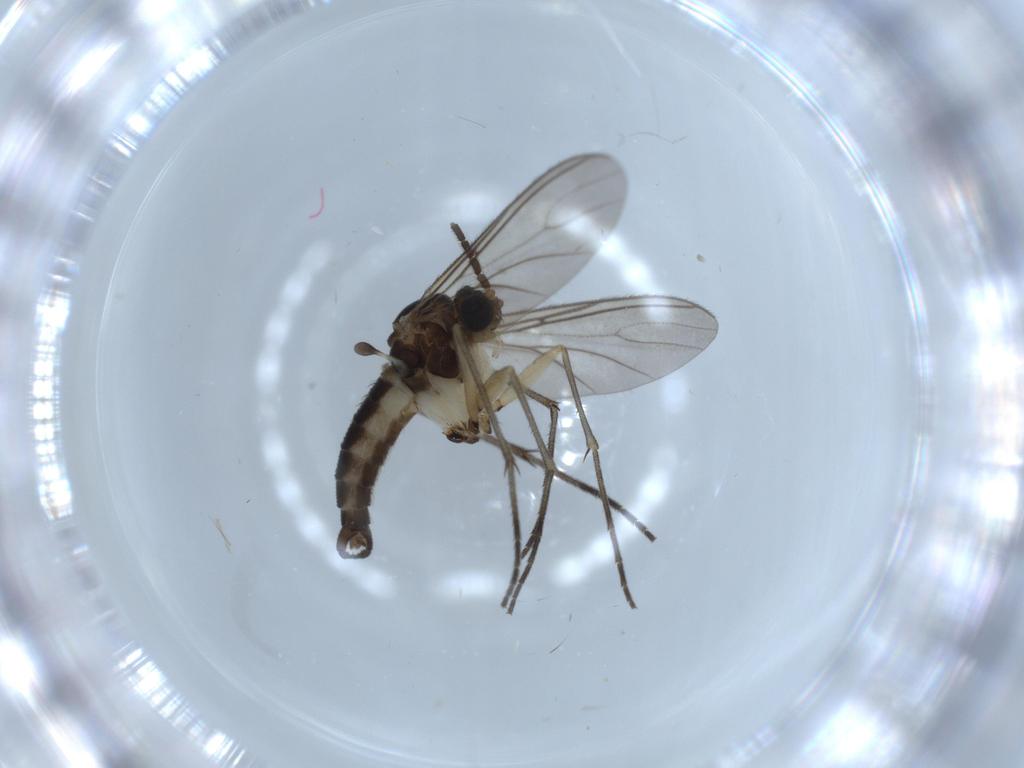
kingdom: Animalia
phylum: Arthropoda
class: Insecta
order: Diptera
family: Sciaridae
